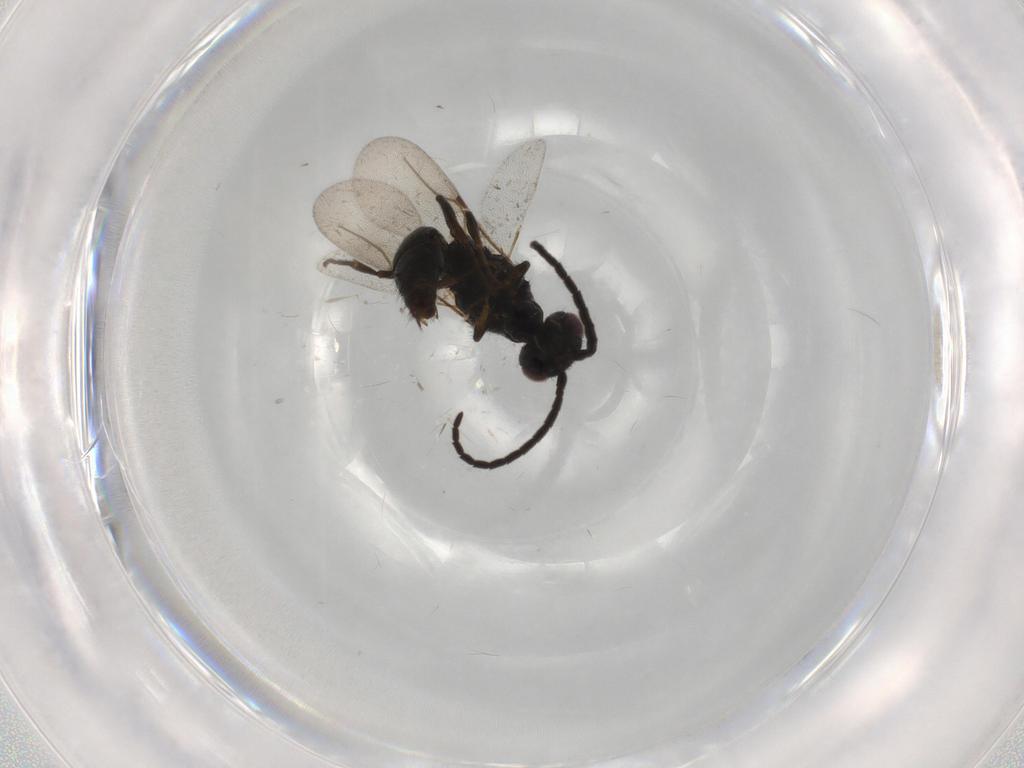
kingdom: Animalia
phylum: Arthropoda
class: Insecta
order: Hymenoptera
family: Bethylidae
